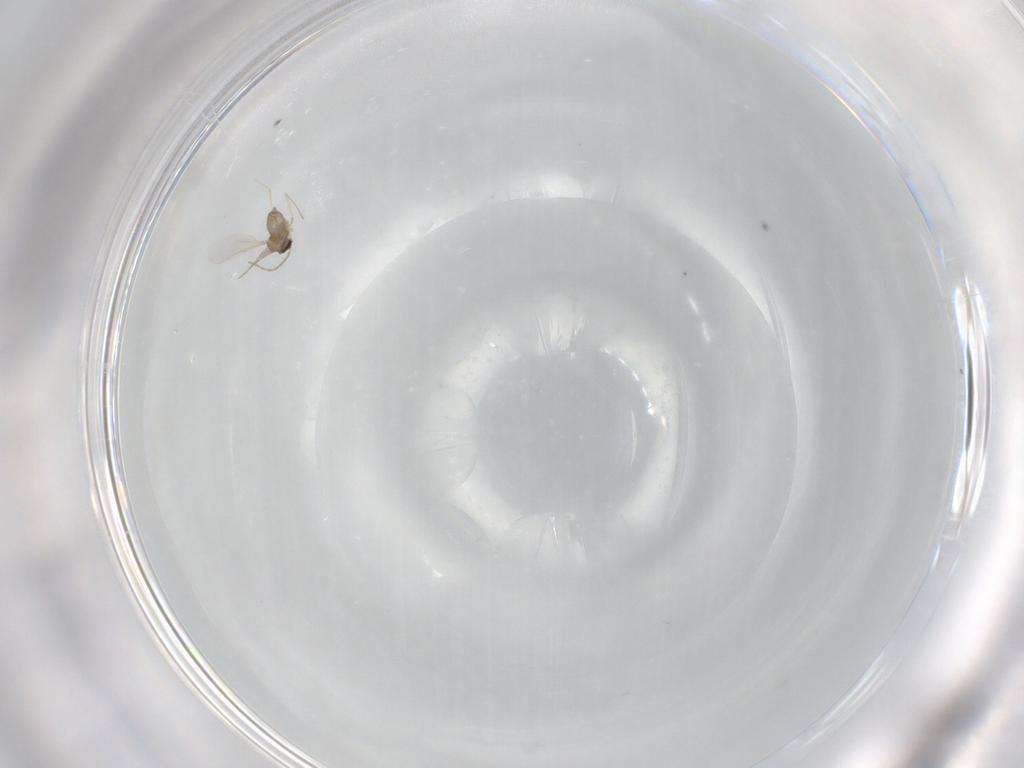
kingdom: Animalia
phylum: Arthropoda
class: Insecta
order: Diptera
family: Cecidomyiidae
